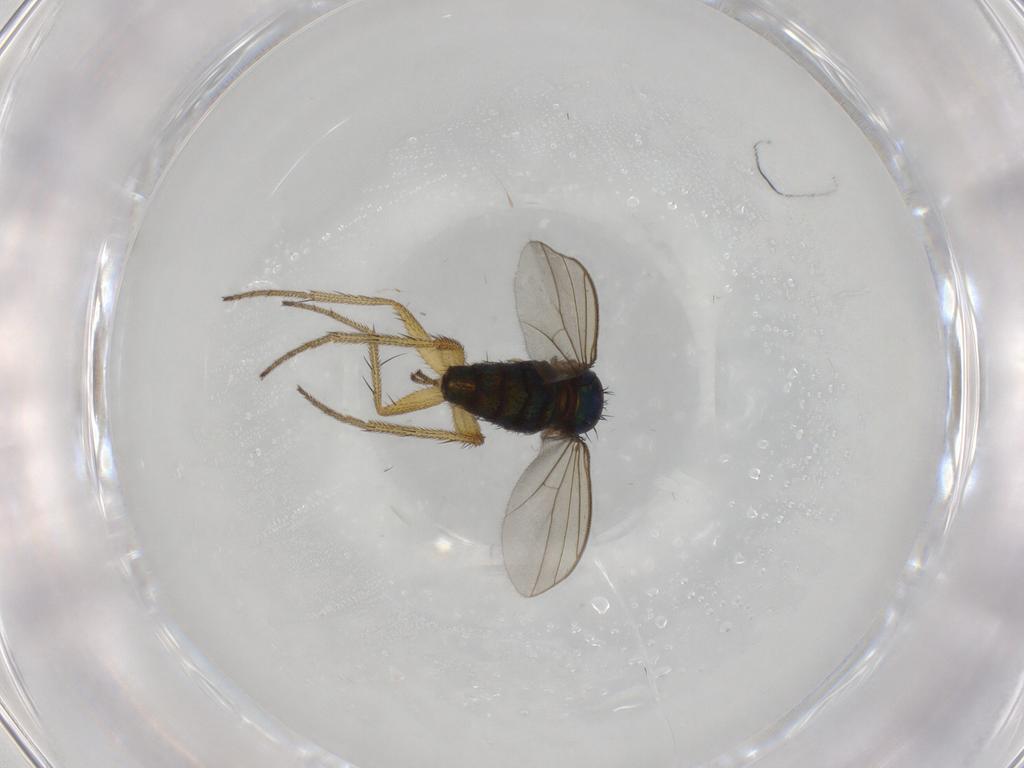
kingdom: Animalia
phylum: Arthropoda
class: Insecta
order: Diptera
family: Dolichopodidae
